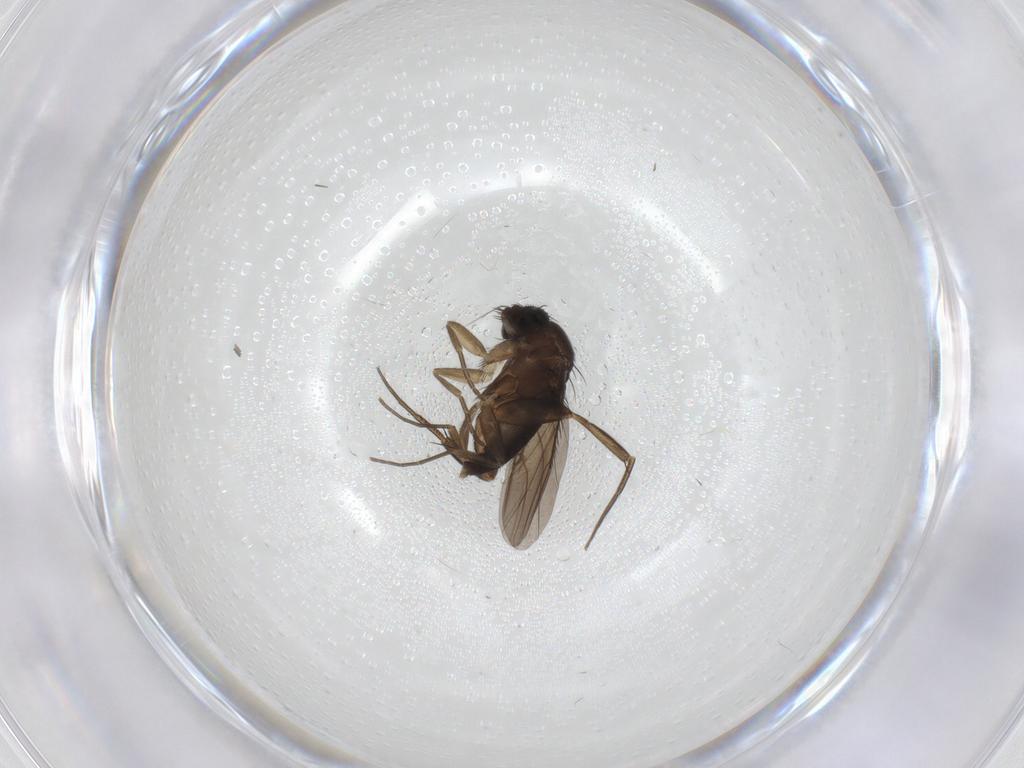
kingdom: Animalia
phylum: Arthropoda
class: Insecta
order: Diptera
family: Phoridae
